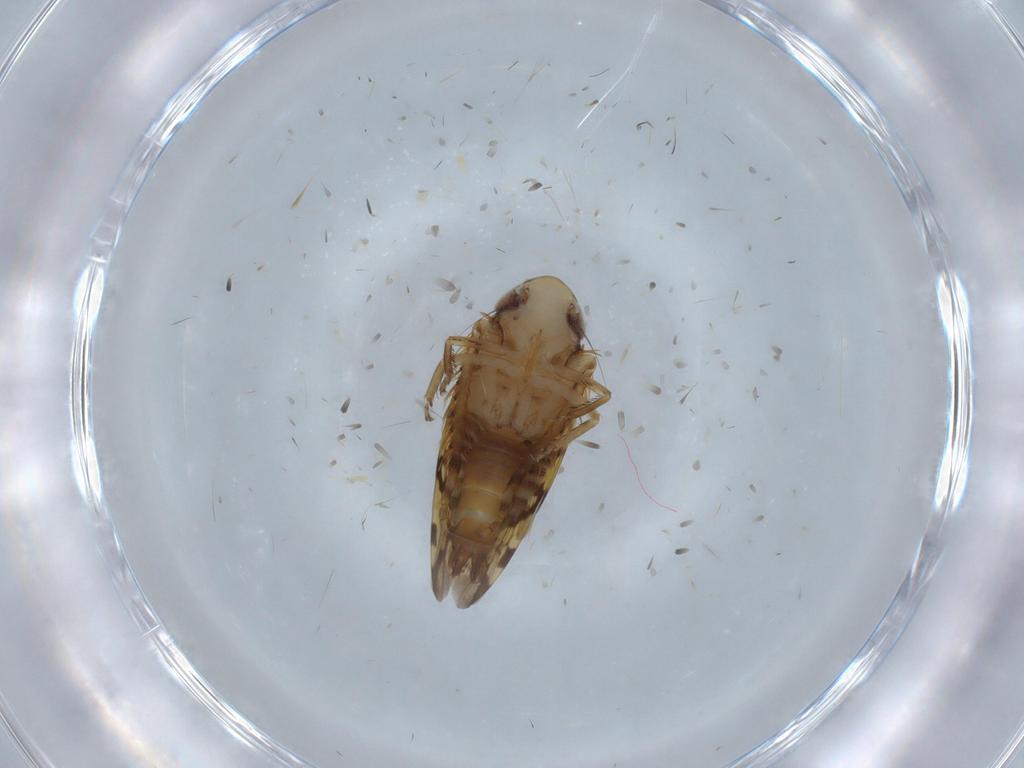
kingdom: Animalia
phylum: Arthropoda
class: Insecta
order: Hemiptera
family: Cicadellidae
